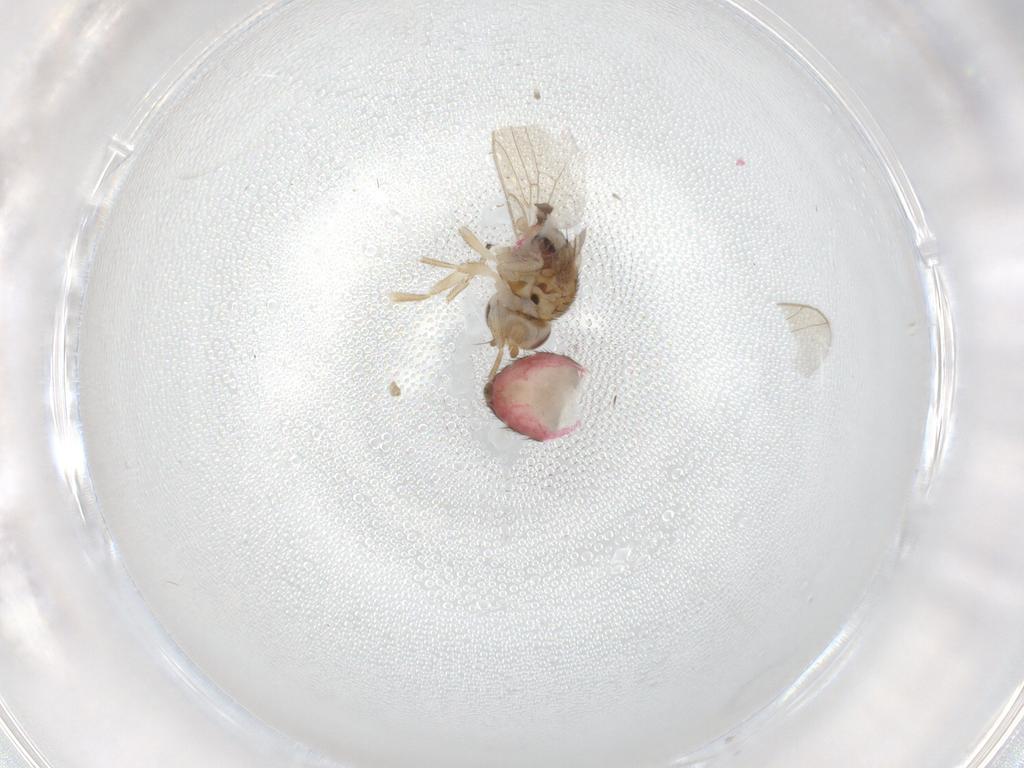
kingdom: Animalia
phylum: Arthropoda
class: Insecta
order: Diptera
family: Chloropidae
